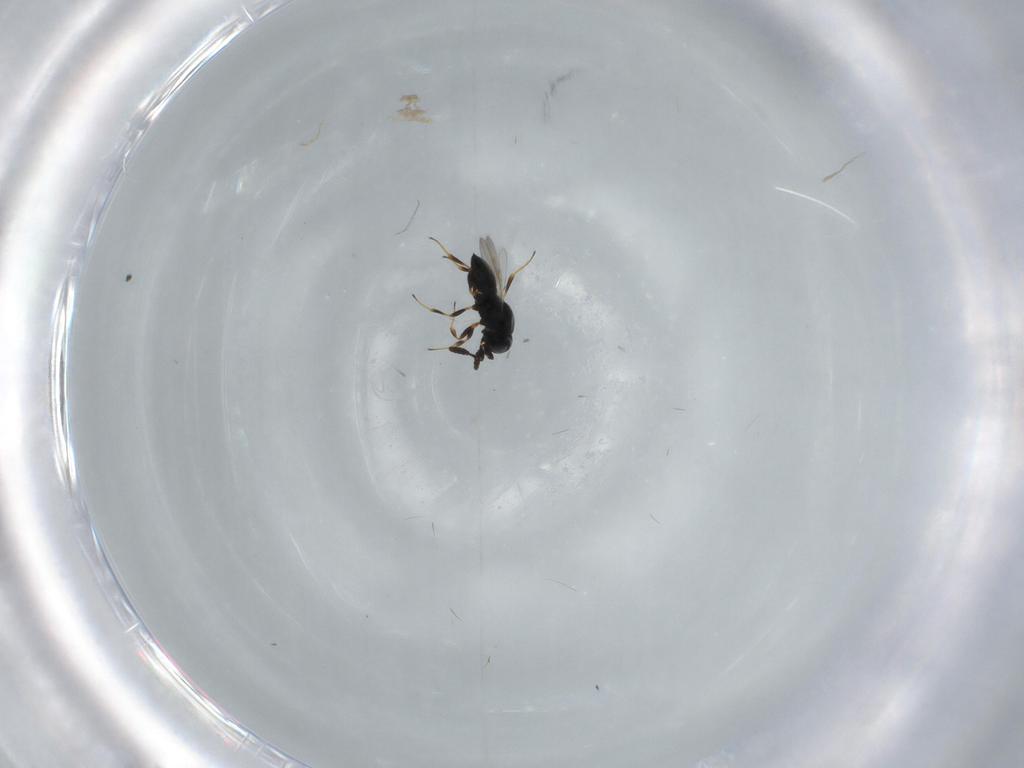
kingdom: Animalia
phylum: Arthropoda
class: Insecta
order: Hymenoptera
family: Scelionidae
